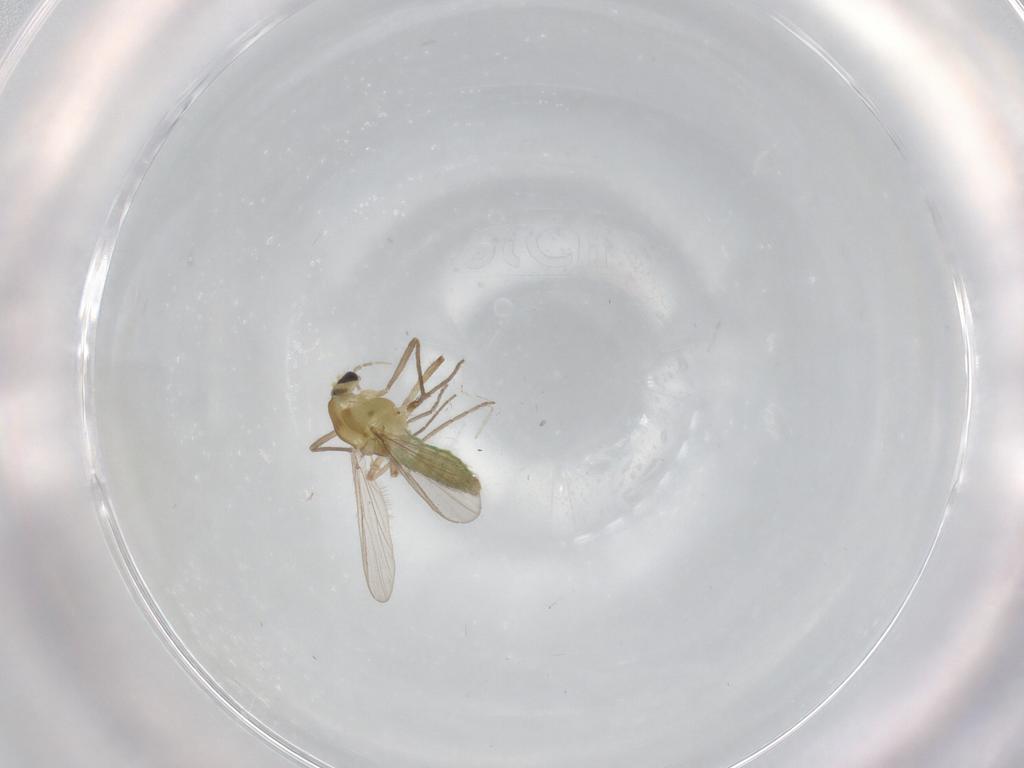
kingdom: Animalia
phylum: Arthropoda
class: Insecta
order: Diptera
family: Chironomidae
